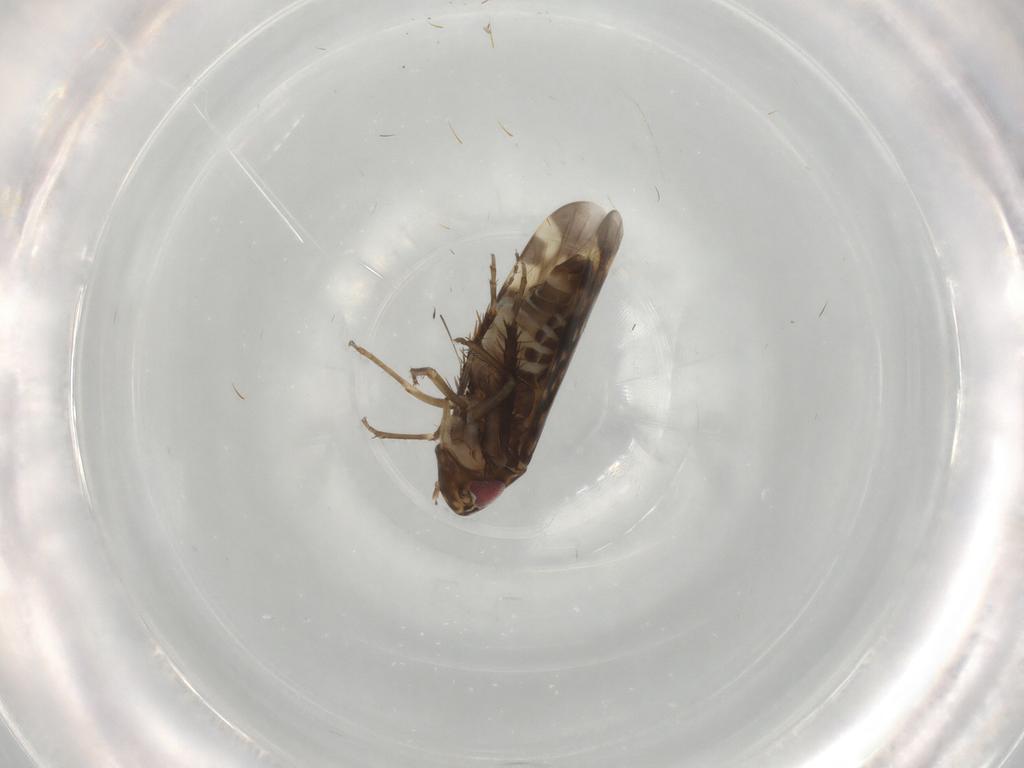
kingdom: Animalia
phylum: Arthropoda
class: Insecta
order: Hemiptera
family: Cicadellidae
